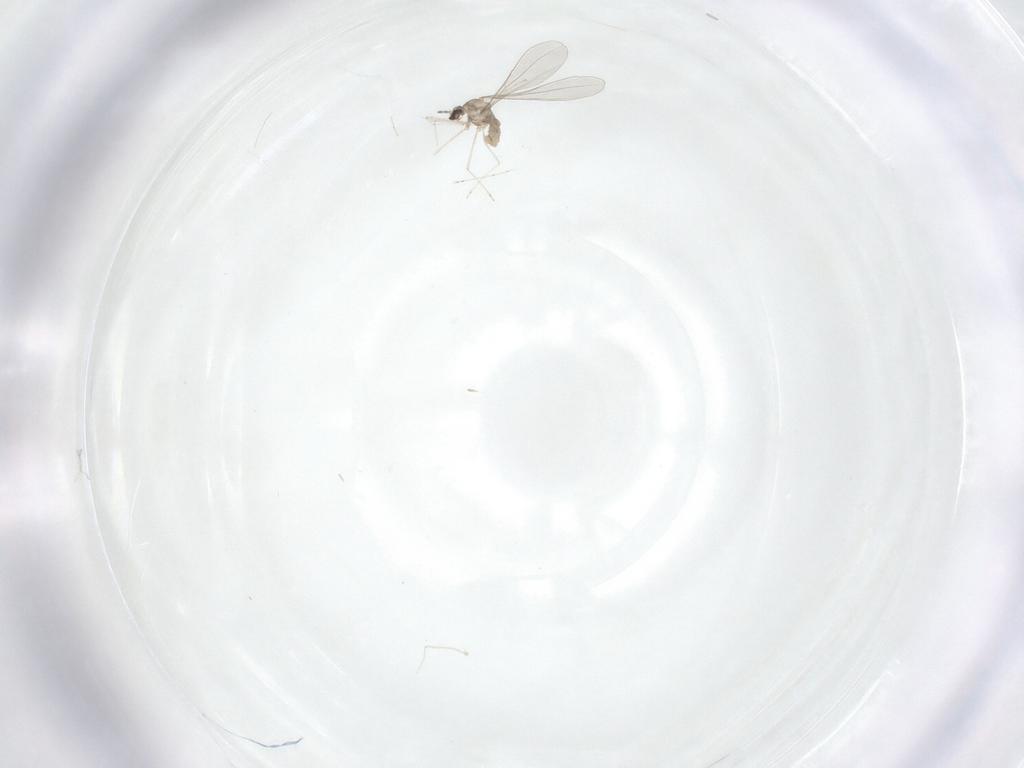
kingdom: Animalia
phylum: Arthropoda
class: Insecta
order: Diptera
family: Cecidomyiidae
